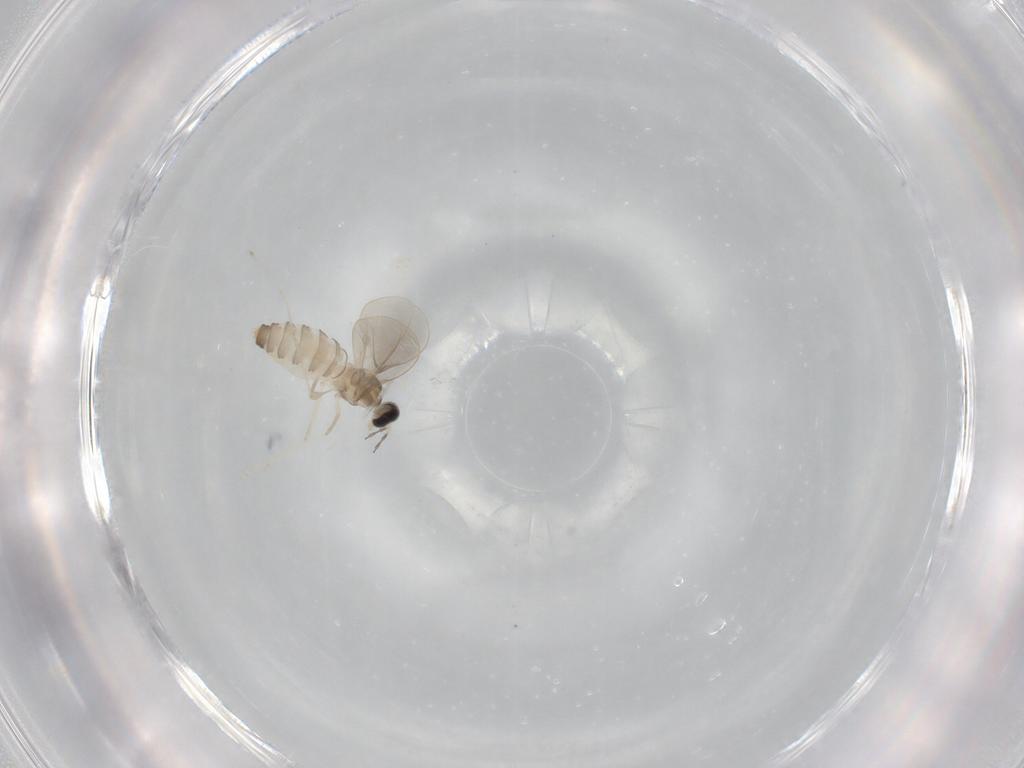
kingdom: Animalia
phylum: Arthropoda
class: Insecta
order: Diptera
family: Cecidomyiidae
